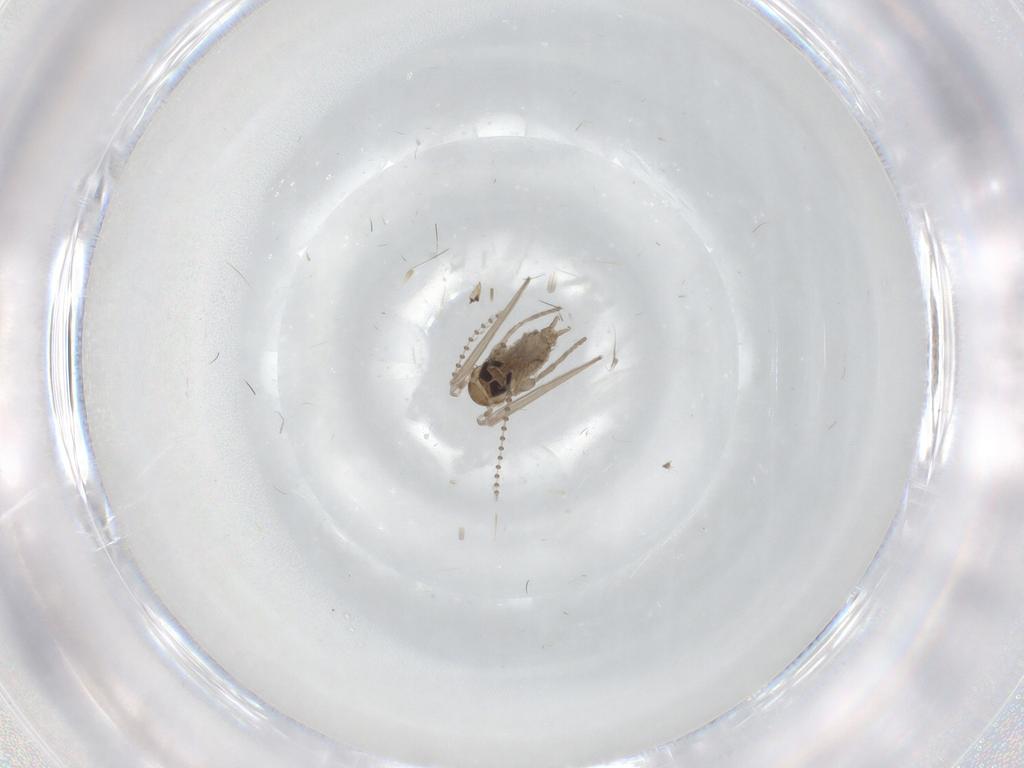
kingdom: Animalia
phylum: Arthropoda
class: Insecta
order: Diptera
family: Psychodidae
